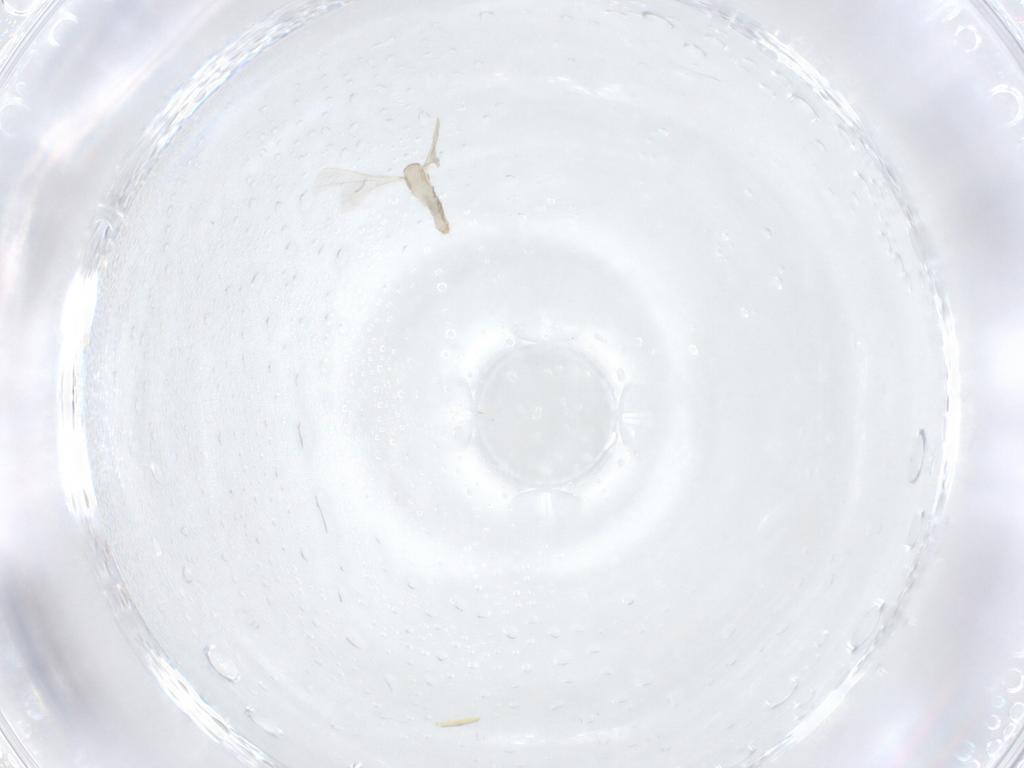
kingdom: Animalia
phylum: Arthropoda
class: Insecta
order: Diptera
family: Cecidomyiidae
